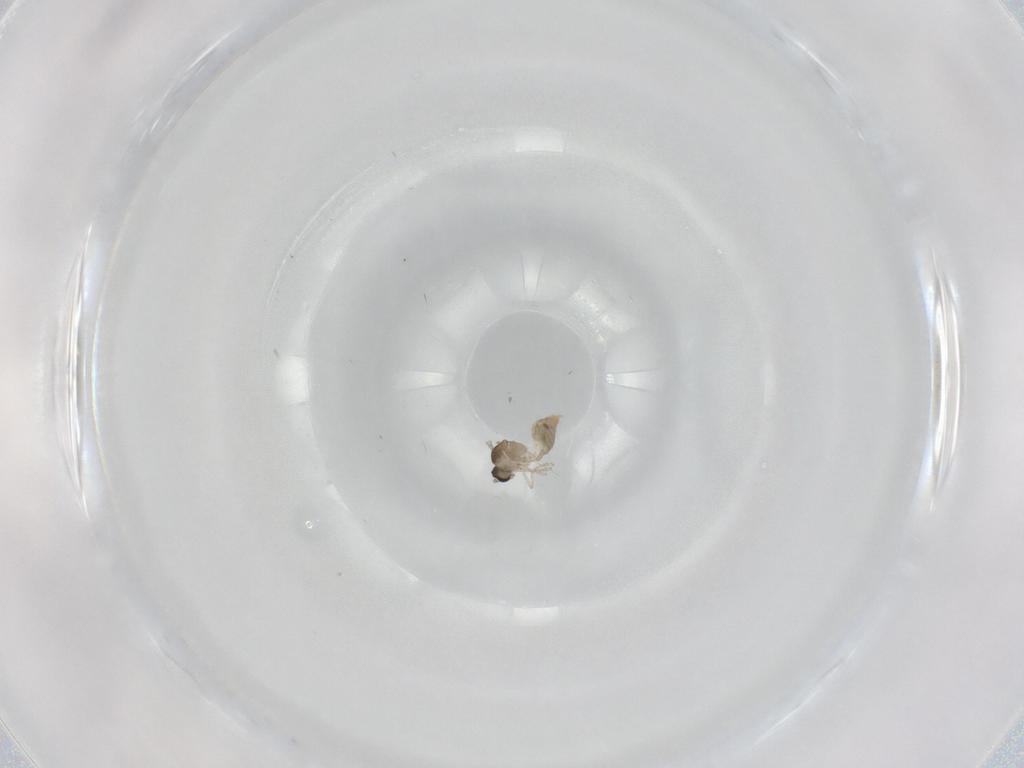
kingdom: Animalia
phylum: Arthropoda
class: Insecta
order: Diptera
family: Cecidomyiidae
